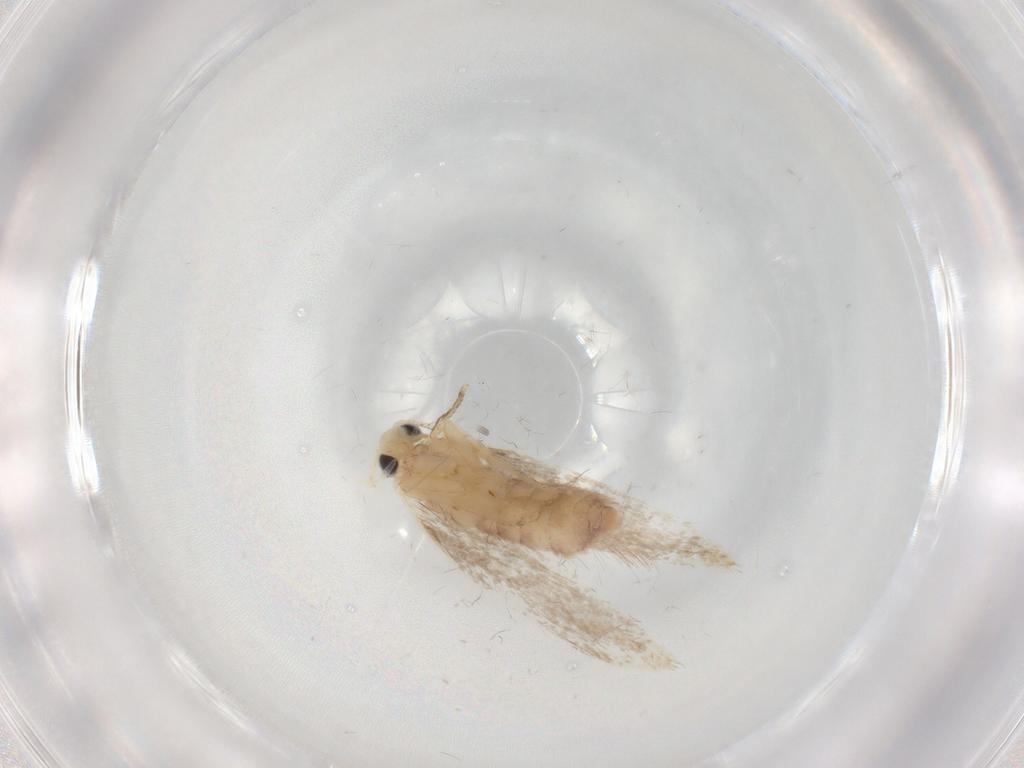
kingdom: Animalia
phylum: Arthropoda
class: Insecta
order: Lepidoptera
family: Dryadaulidae
